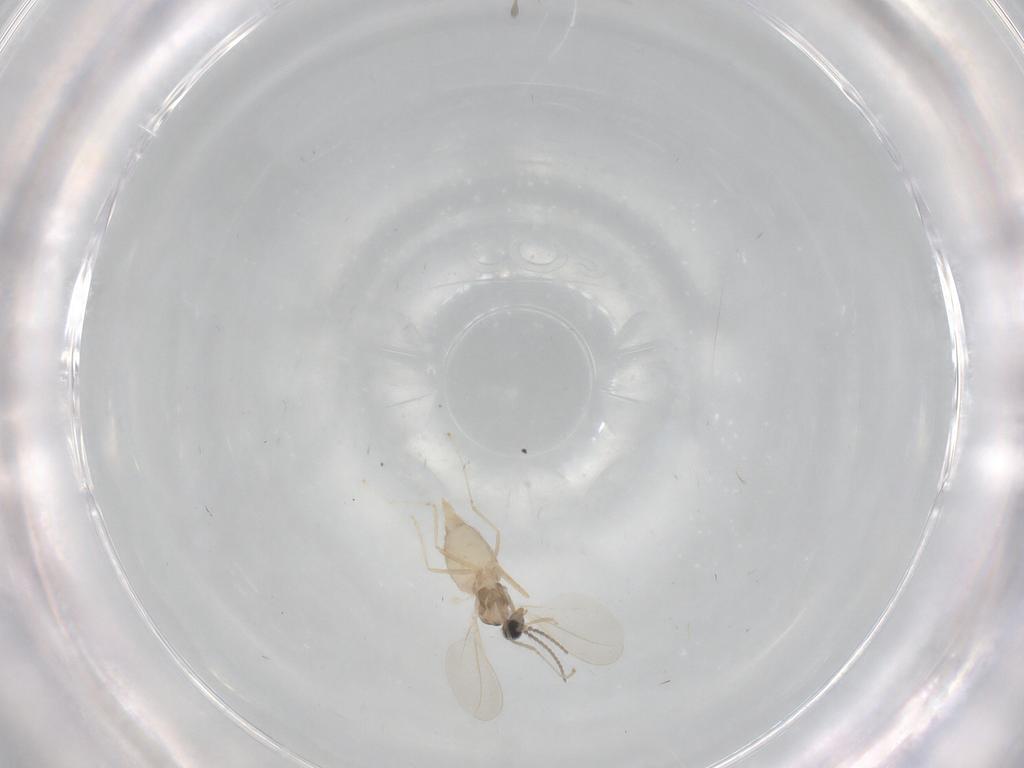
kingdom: Animalia
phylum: Arthropoda
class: Insecta
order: Diptera
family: Cecidomyiidae
